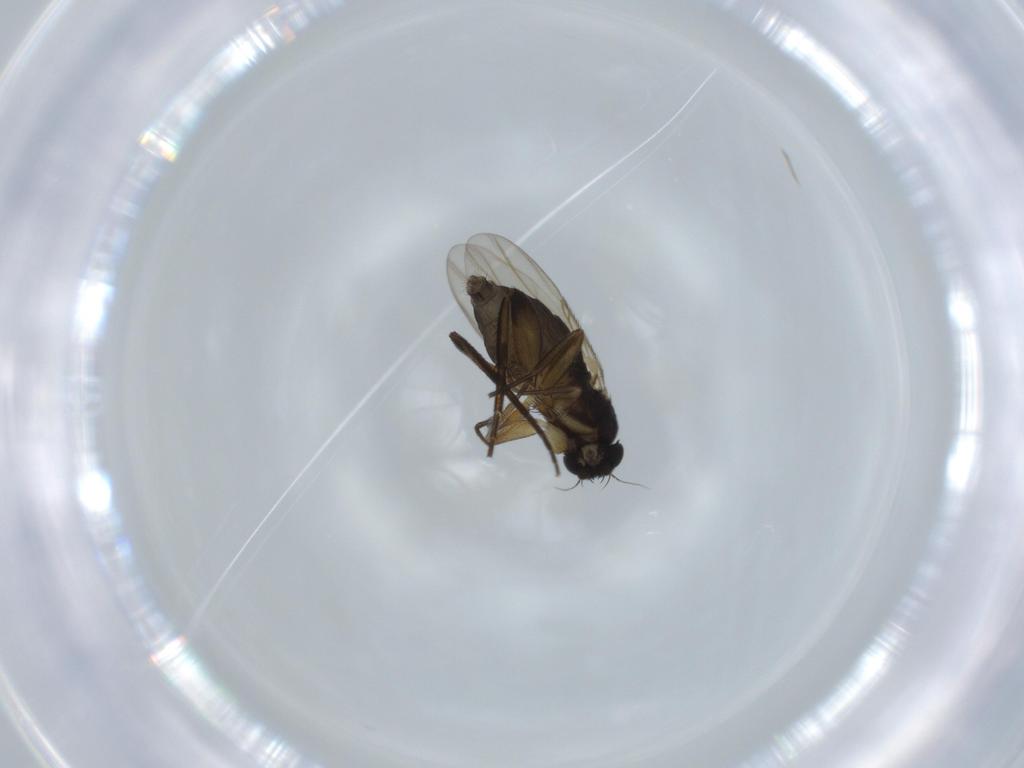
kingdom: Animalia
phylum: Arthropoda
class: Insecta
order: Diptera
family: Phoridae
